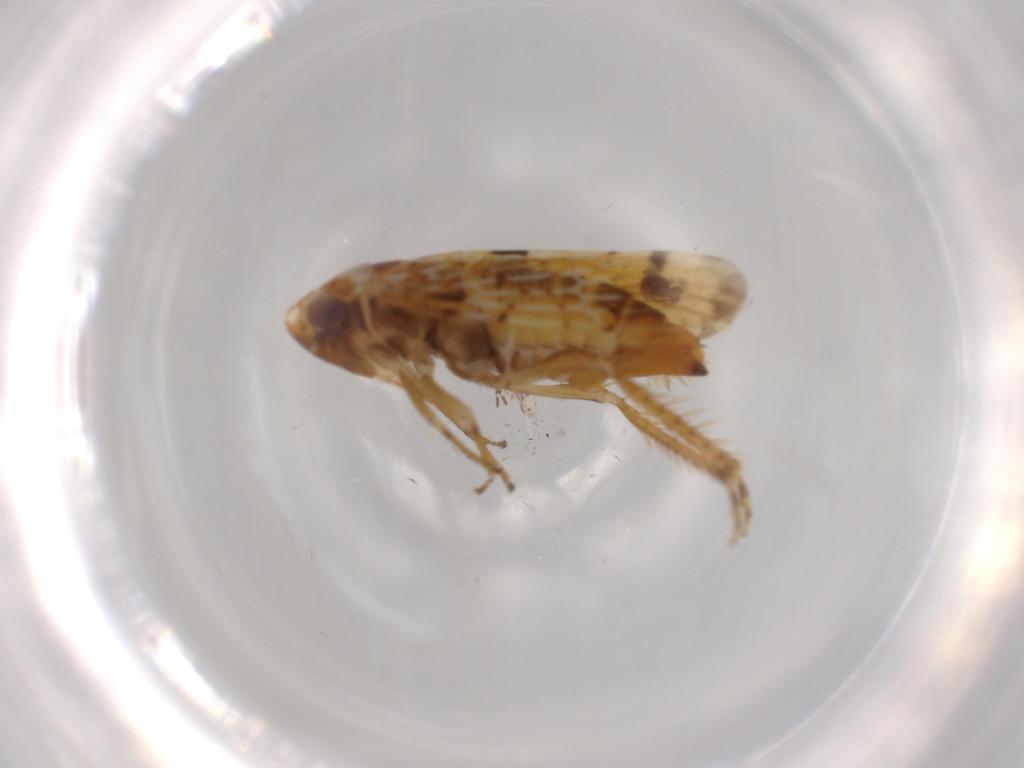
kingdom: Animalia
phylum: Arthropoda
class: Insecta
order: Hemiptera
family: Cicadellidae
